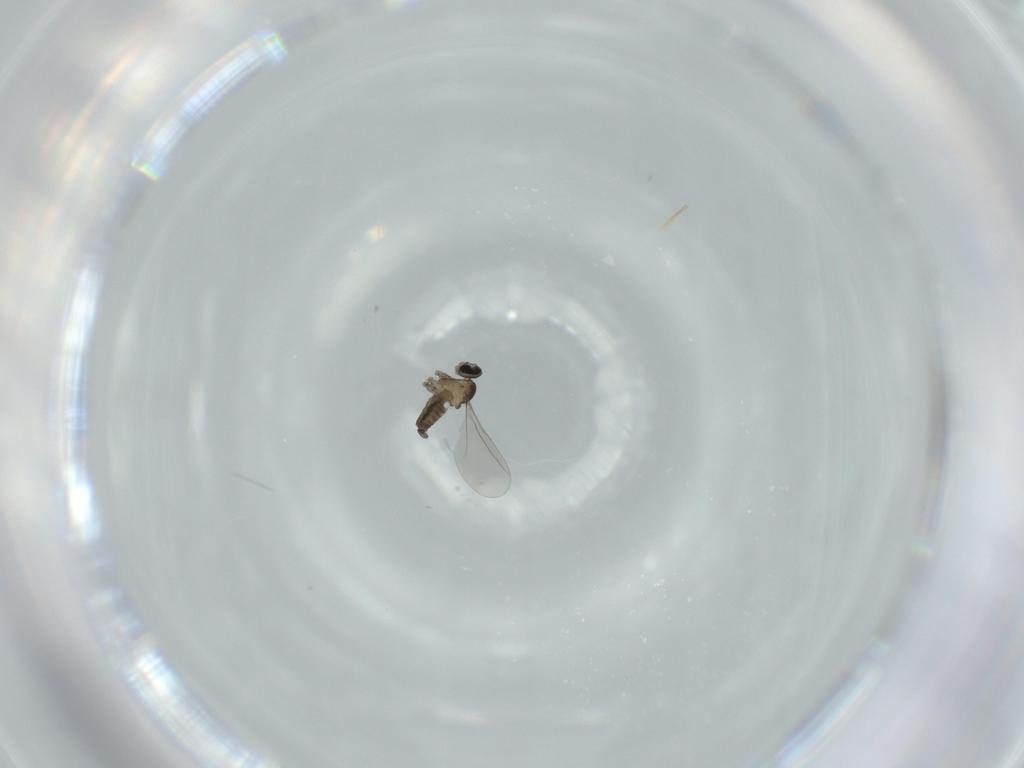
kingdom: Animalia
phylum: Arthropoda
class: Insecta
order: Diptera
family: Cecidomyiidae
